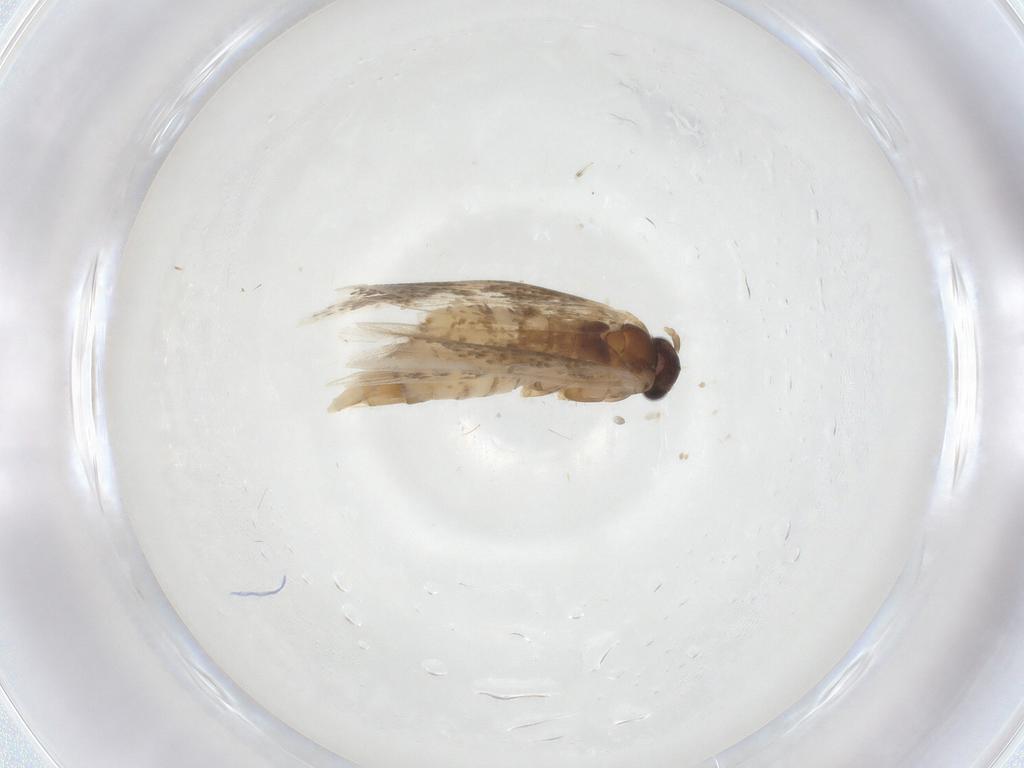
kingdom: Animalia
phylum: Arthropoda
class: Insecta
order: Lepidoptera
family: Tineidae
